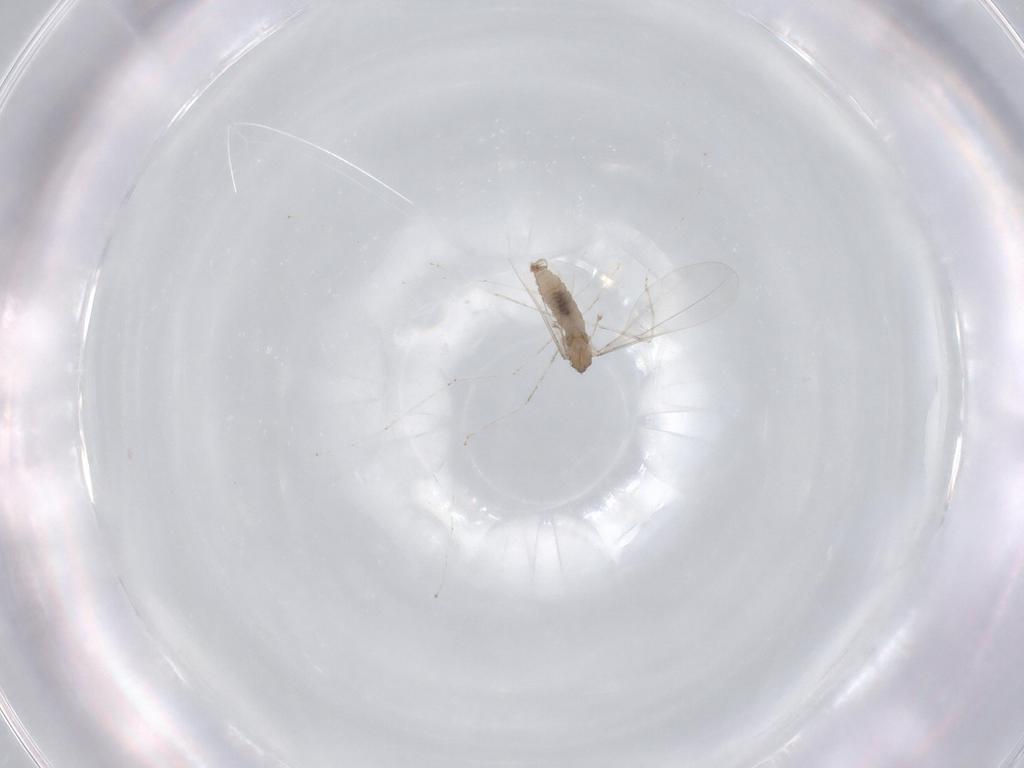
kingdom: Animalia
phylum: Arthropoda
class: Insecta
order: Diptera
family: Cecidomyiidae
